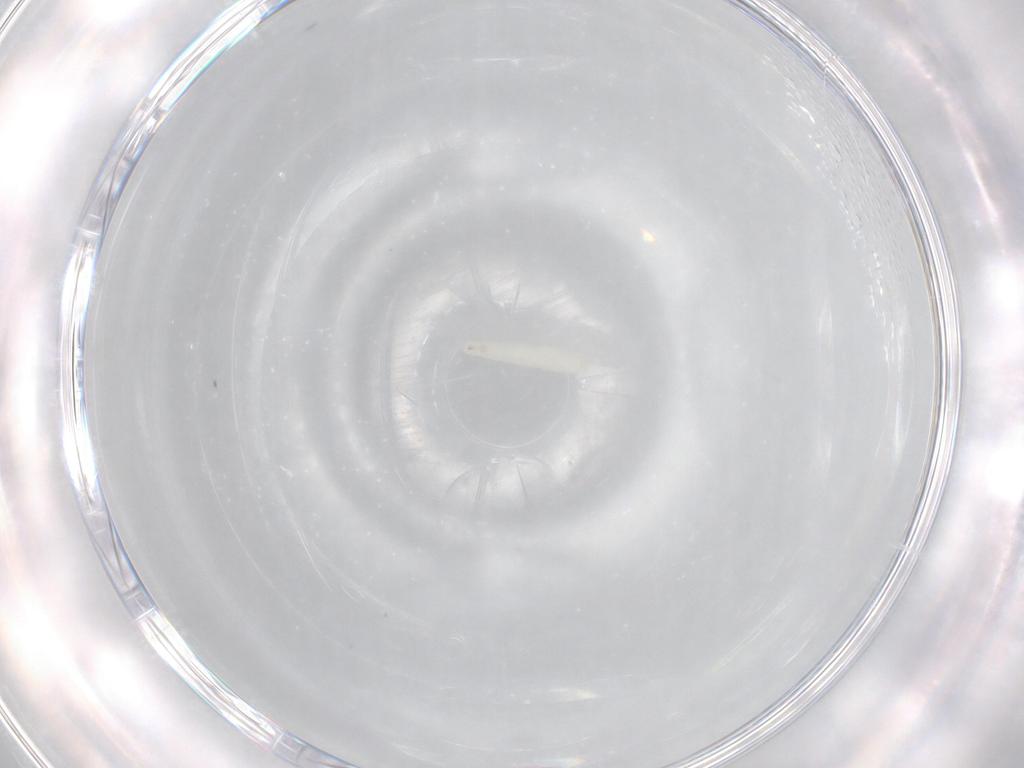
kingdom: Animalia
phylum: Arthropoda
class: Insecta
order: Diptera
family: Sarcophagidae
